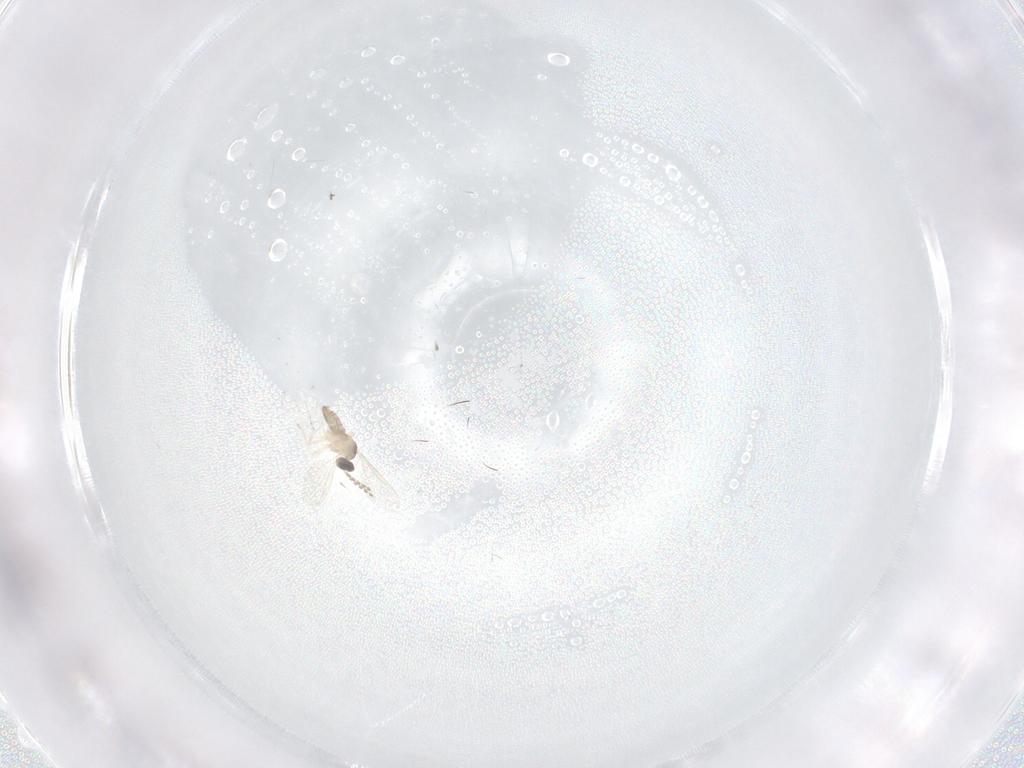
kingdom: Animalia
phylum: Arthropoda
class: Insecta
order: Diptera
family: Cecidomyiidae
